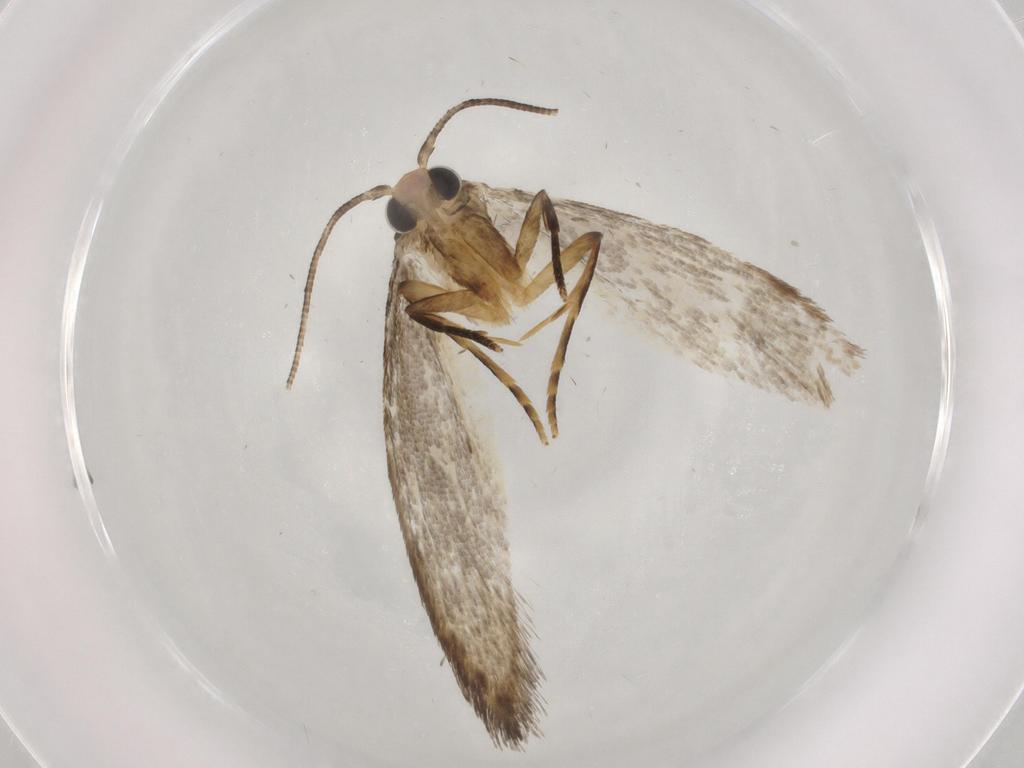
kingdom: Animalia
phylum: Arthropoda
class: Insecta
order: Lepidoptera
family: Tineidae
